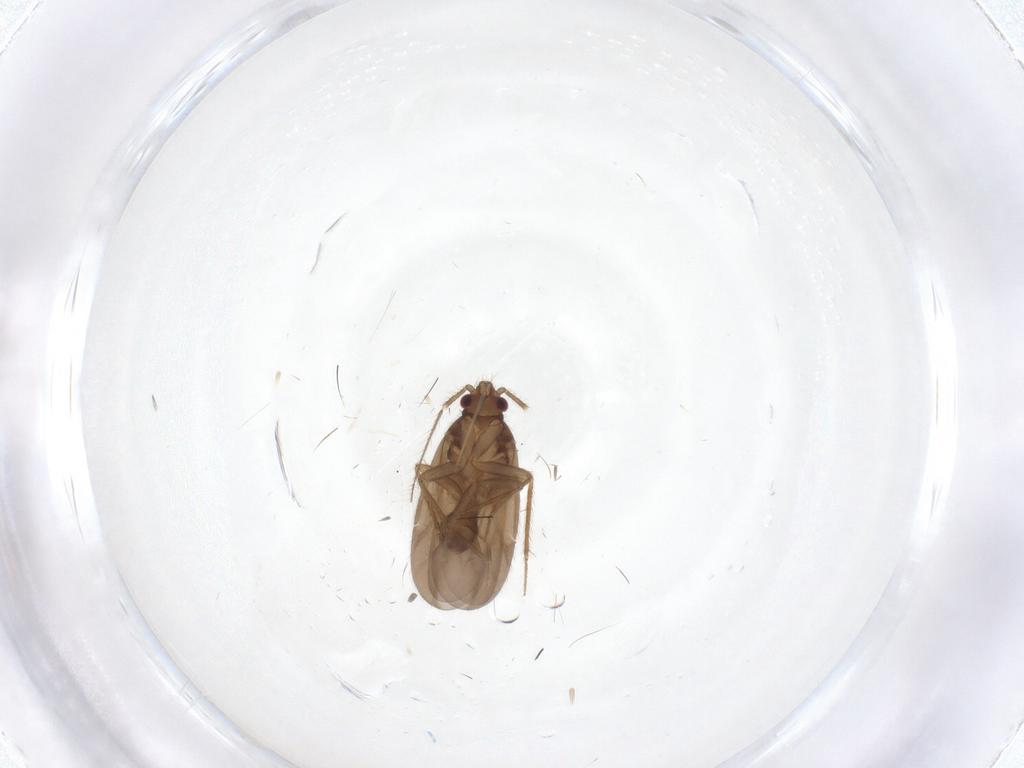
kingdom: Animalia
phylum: Arthropoda
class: Insecta
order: Hemiptera
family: Ceratocombidae
